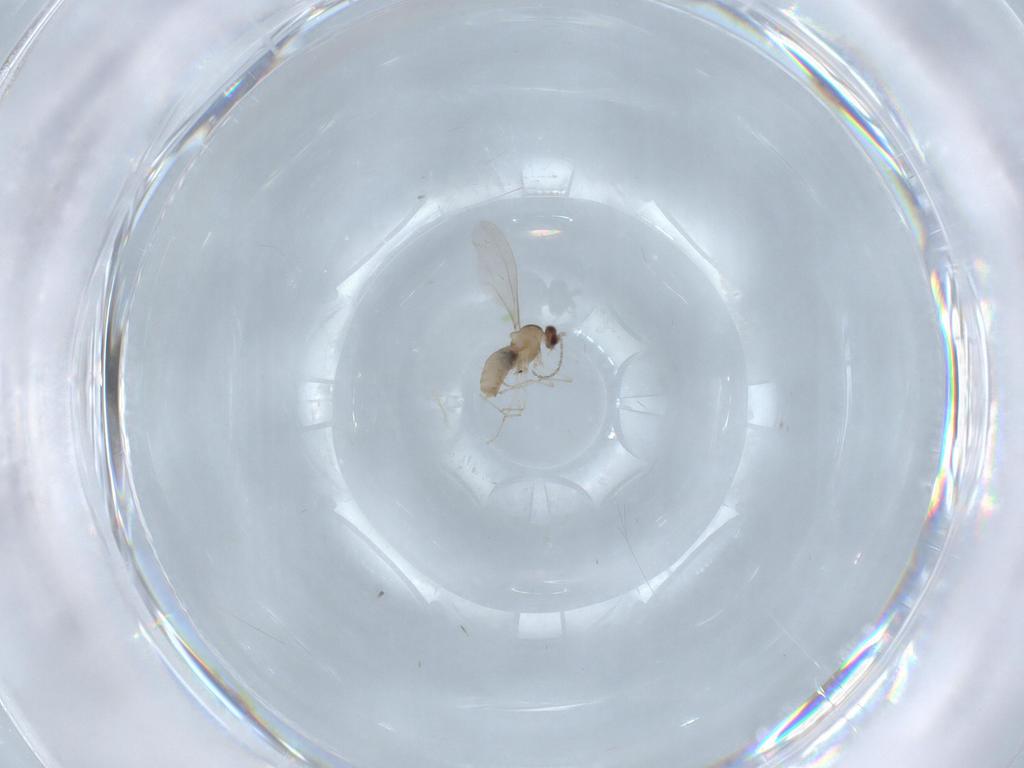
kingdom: Animalia
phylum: Arthropoda
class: Insecta
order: Diptera
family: Cecidomyiidae
